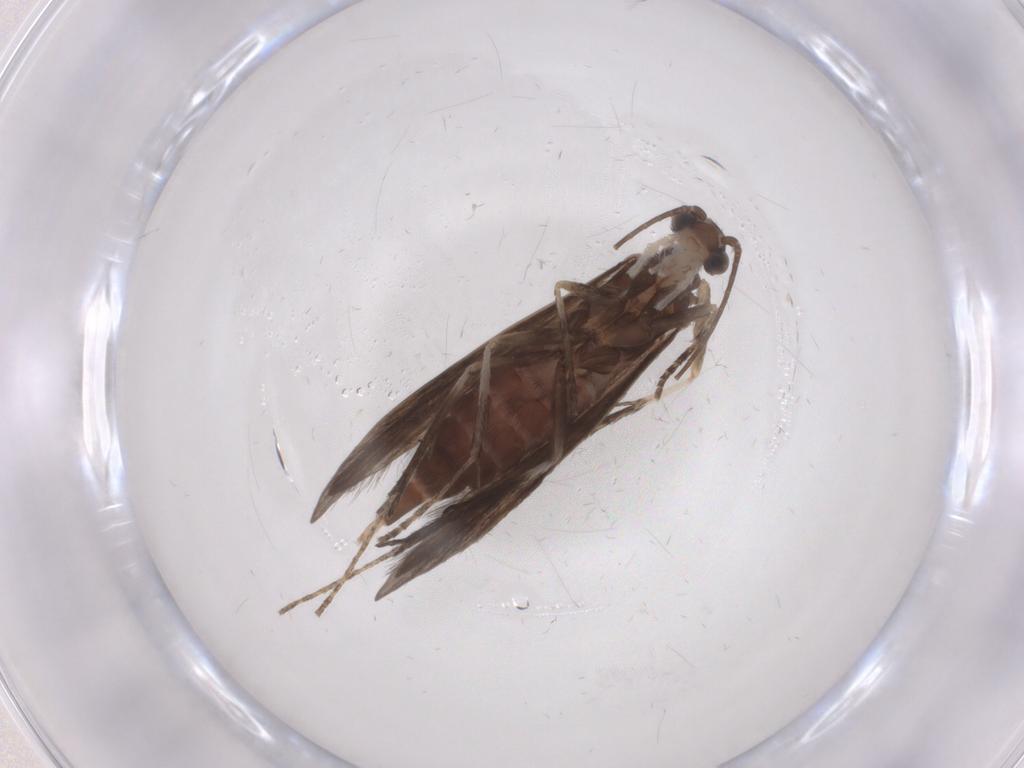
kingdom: Animalia
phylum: Arthropoda
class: Insecta
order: Trichoptera
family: Xiphocentronidae
